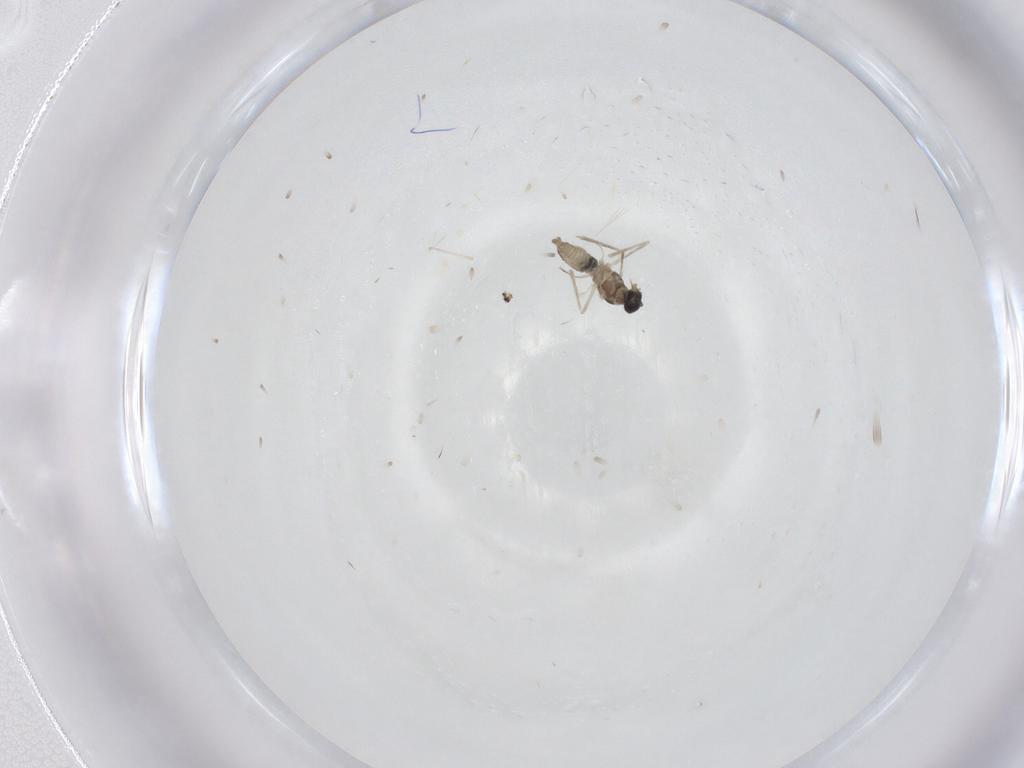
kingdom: Animalia
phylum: Arthropoda
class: Insecta
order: Diptera
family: Cecidomyiidae
